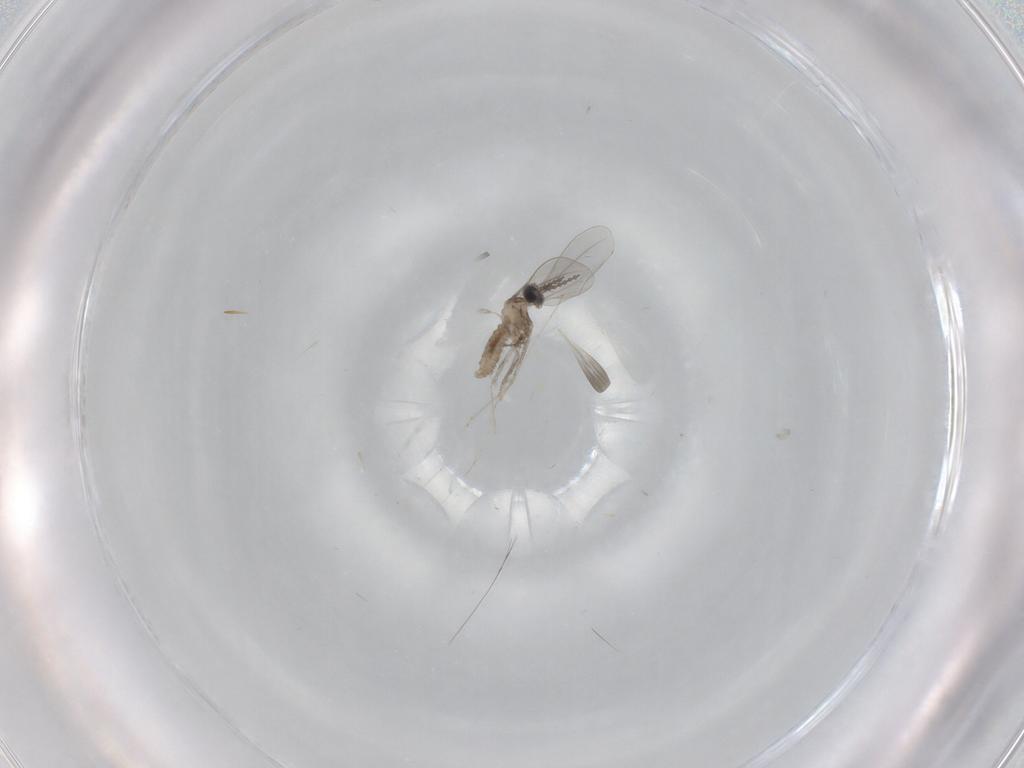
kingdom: Animalia
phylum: Arthropoda
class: Insecta
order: Diptera
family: Cecidomyiidae
